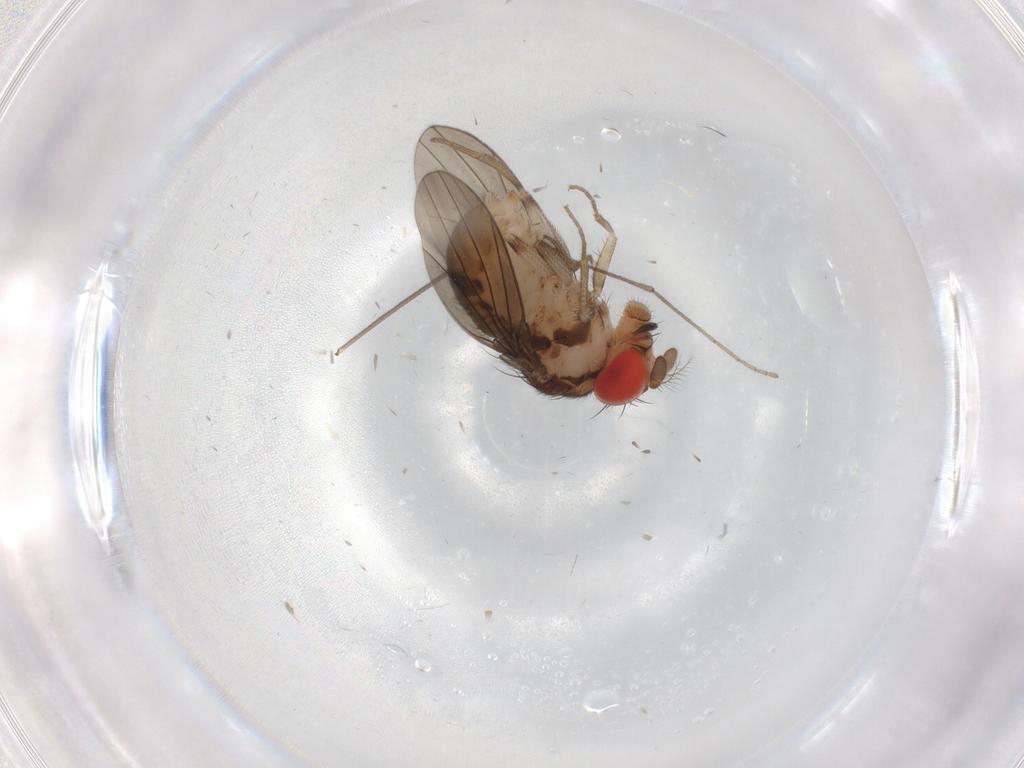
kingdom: Animalia
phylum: Arthropoda
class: Insecta
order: Diptera
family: Drosophilidae
